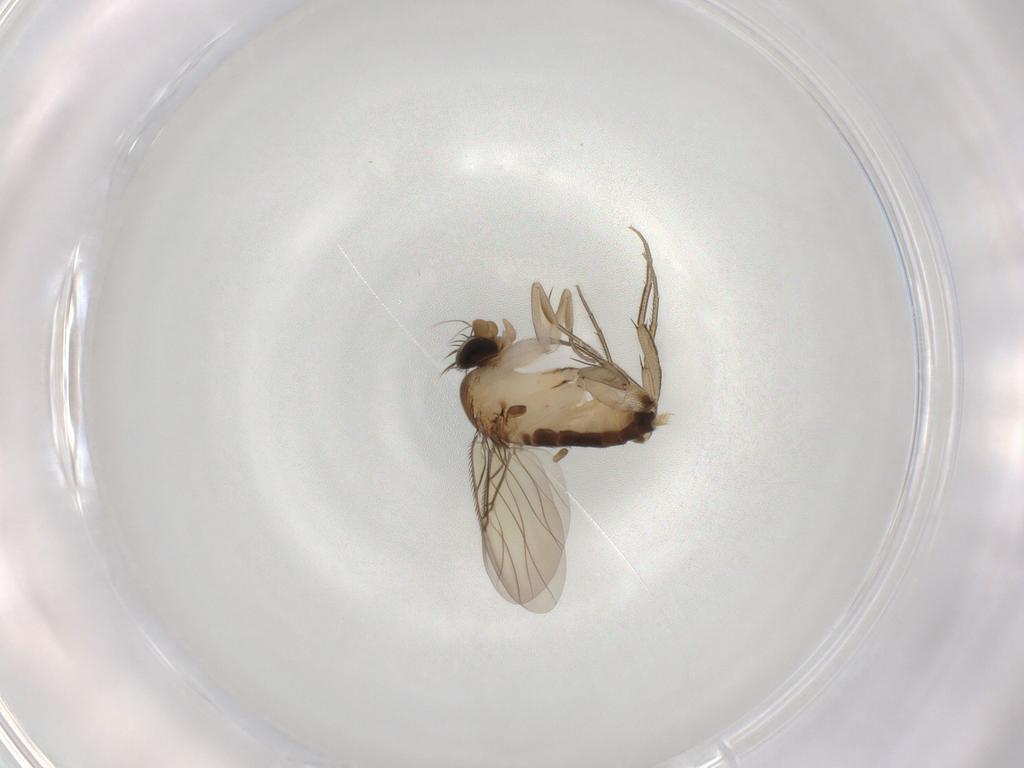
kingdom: Animalia
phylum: Arthropoda
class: Insecta
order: Diptera
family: Phoridae
